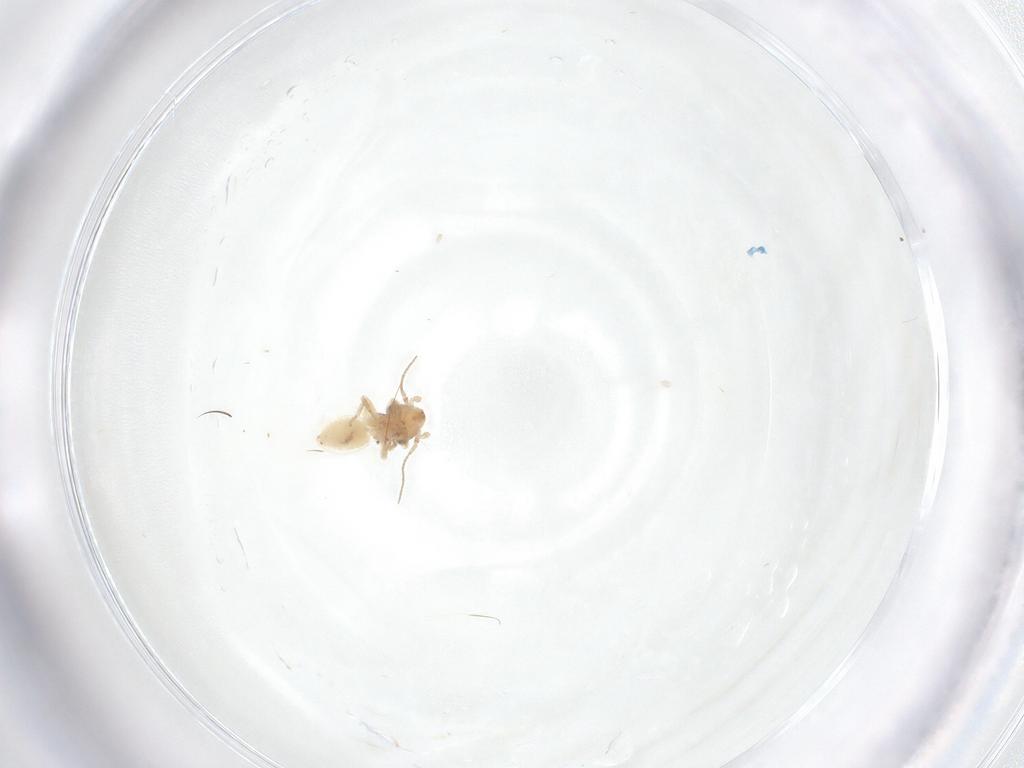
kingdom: Animalia
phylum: Arthropoda
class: Insecta
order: Psocodea
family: Lepidopsocidae
